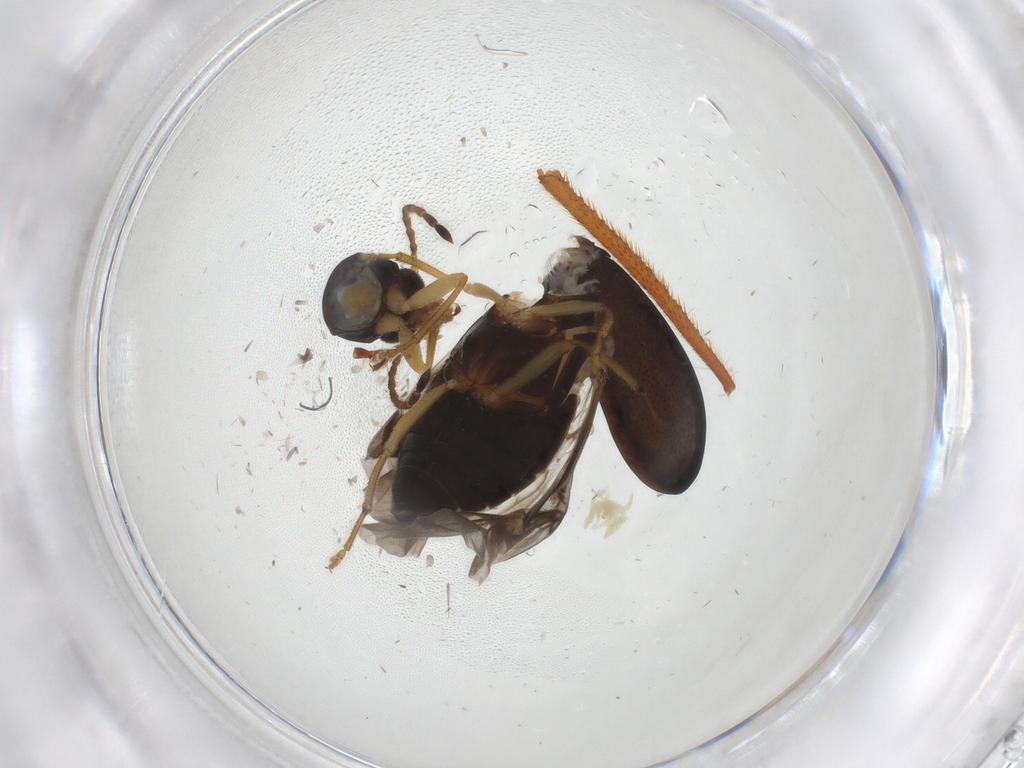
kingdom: Animalia
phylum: Arthropoda
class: Insecta
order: Coleoptera
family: Chrysomelidae
